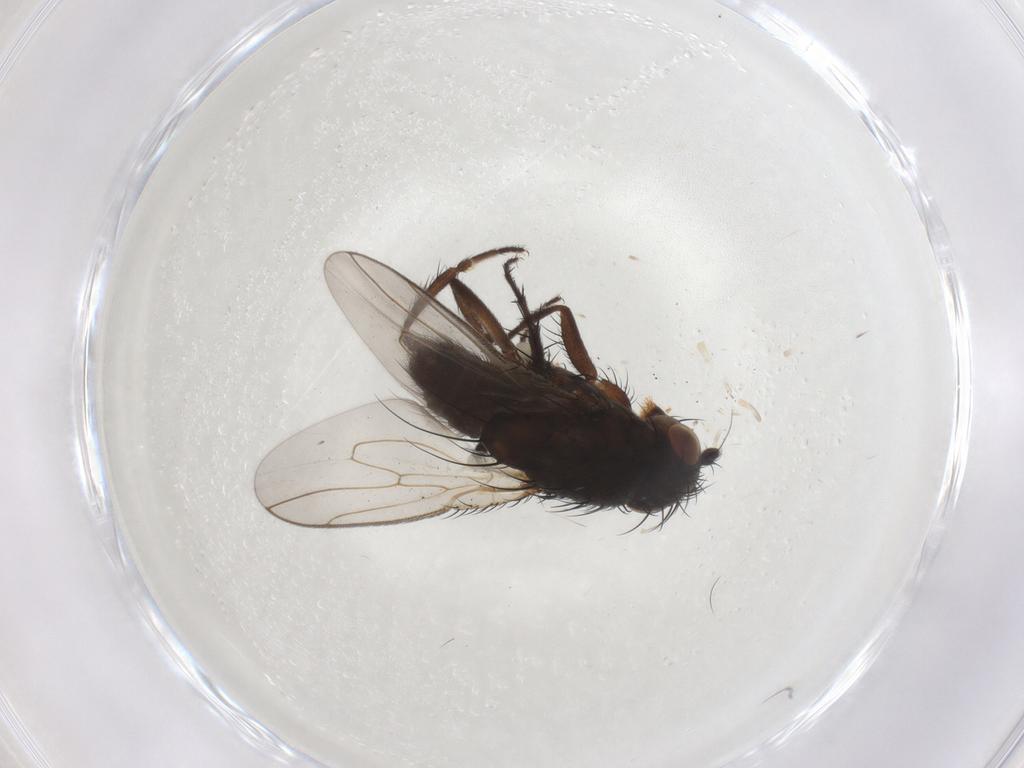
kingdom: Animalia
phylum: Arthropoda
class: Insecta
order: Diptera
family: Sphaeroceridae
